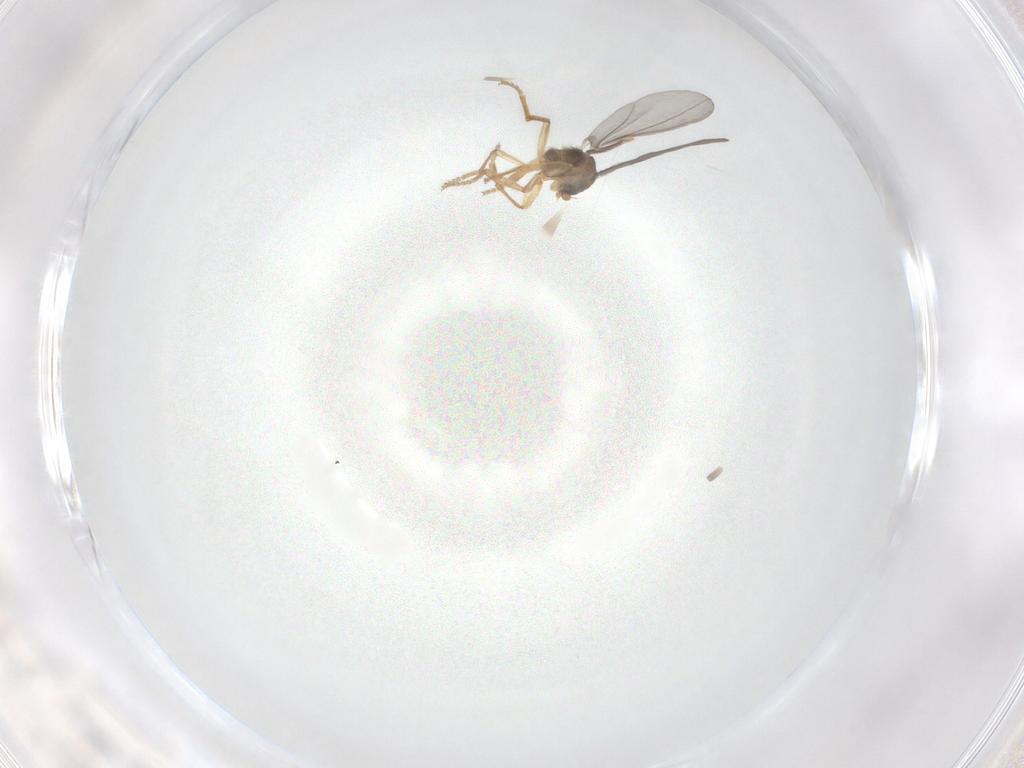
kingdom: Animalia
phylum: Arthropoda
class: Insecta
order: Diptera
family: Phoridae
